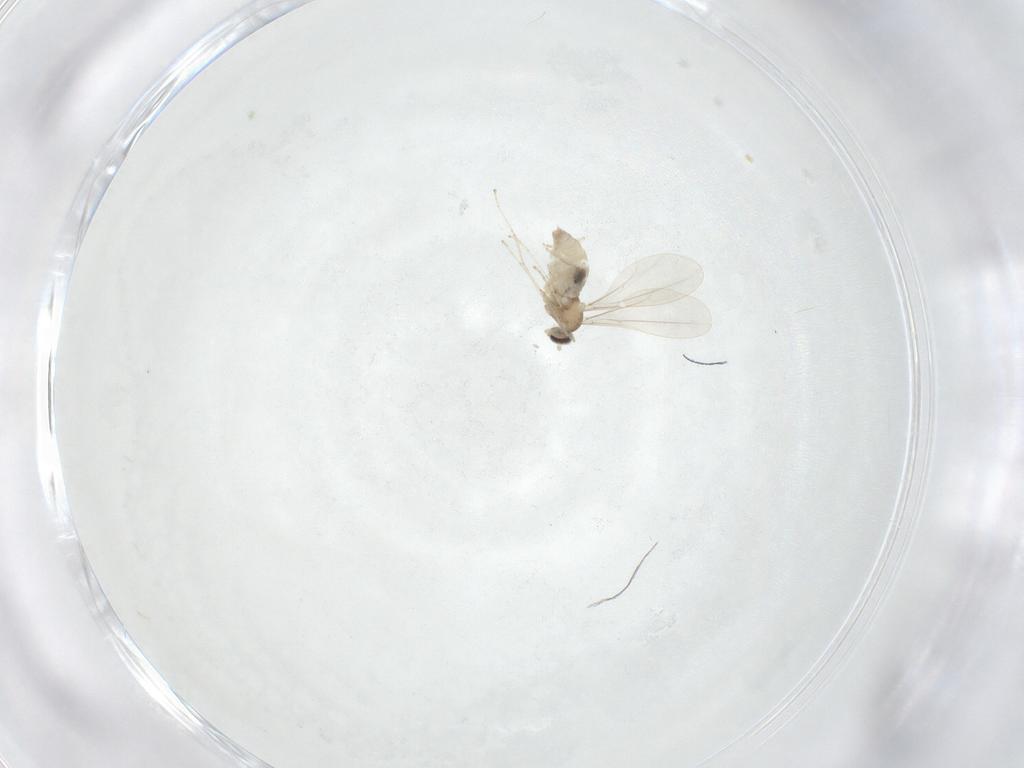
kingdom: Animalia
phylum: Arthropoda
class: Insecta
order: Diptera
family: Cecidomyiidae
